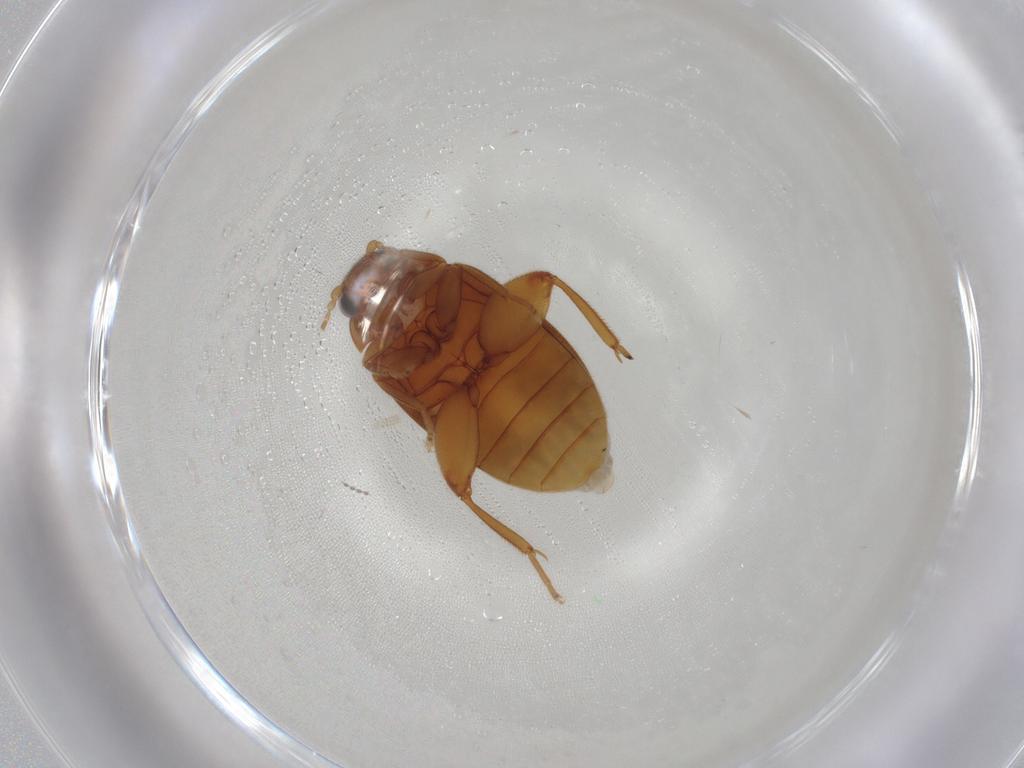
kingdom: Animalia
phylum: Arthropoda
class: Insecta
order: Coleoptera
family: Scirtidae
